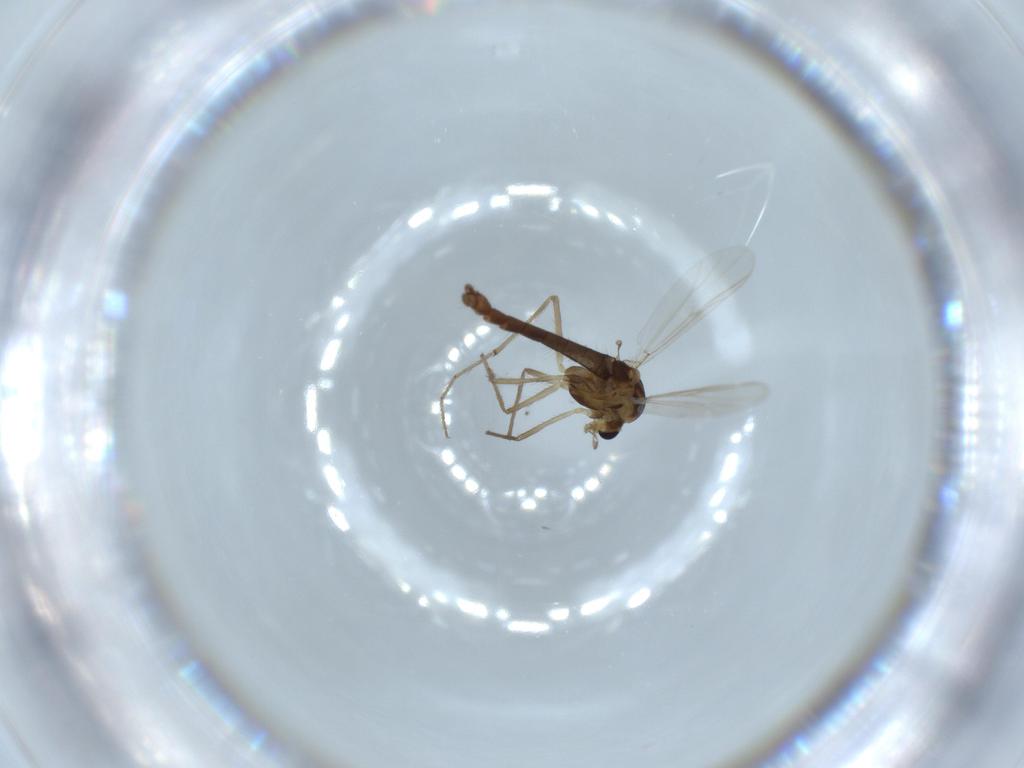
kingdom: Animalia
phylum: Arthropoda
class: Insecta
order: Diptera
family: Chironomidae
